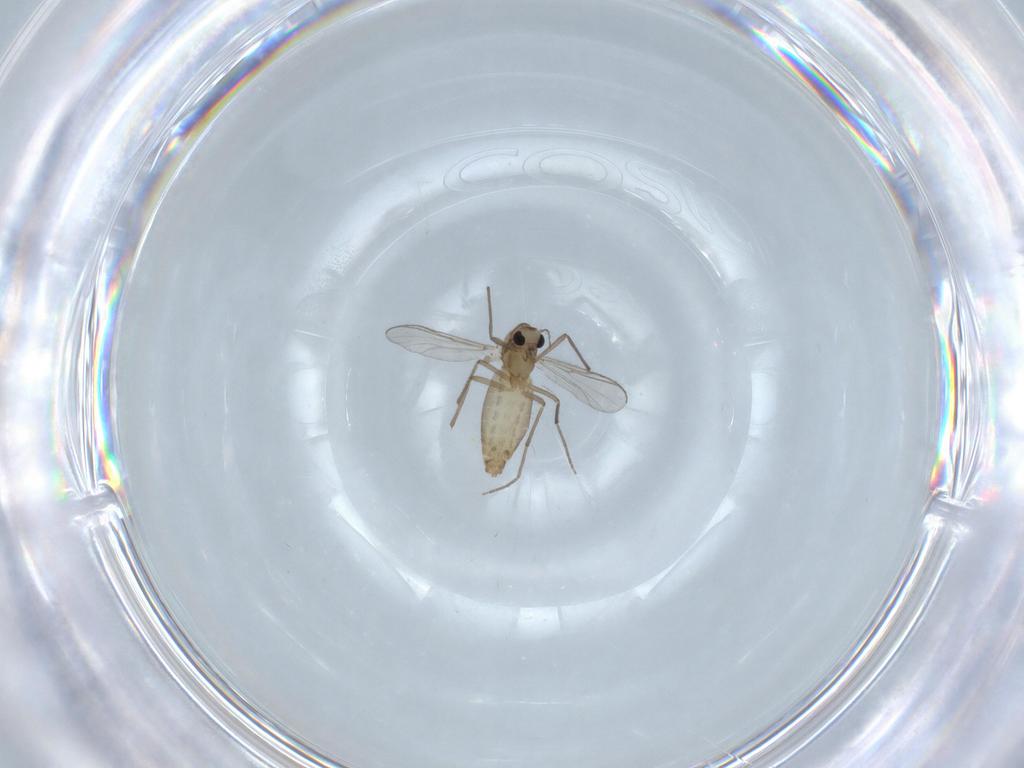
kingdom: Animalia
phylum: Arthropoda
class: Insecta
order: Diptera
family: Chironomidae
